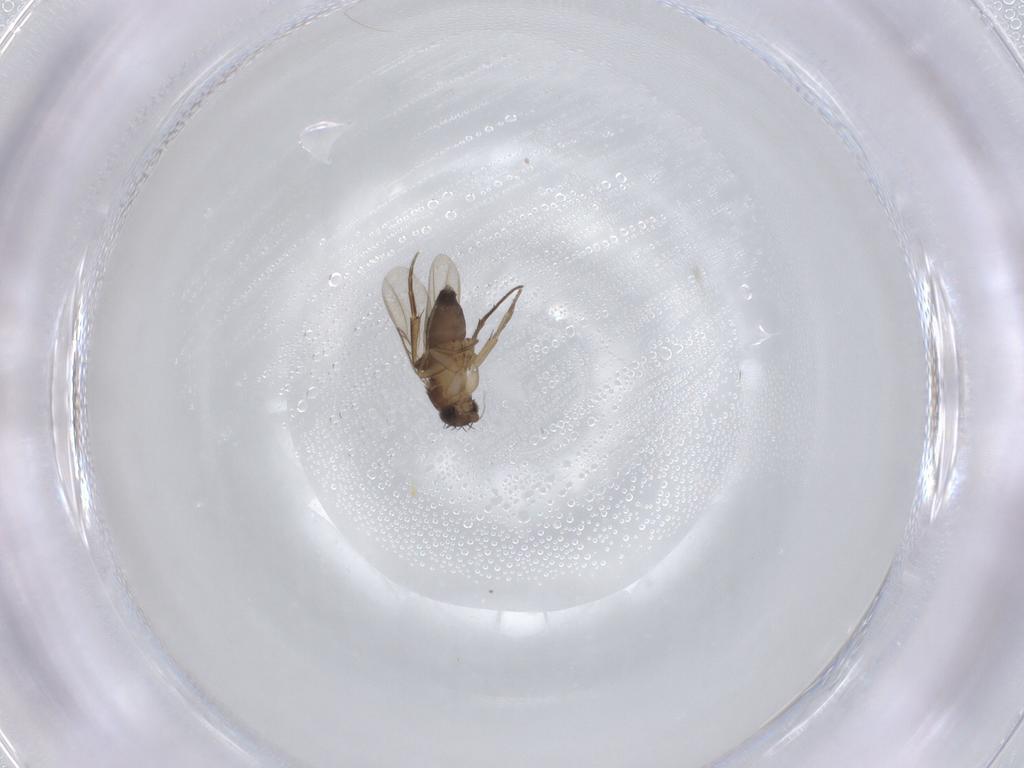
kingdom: Animalia
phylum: Arthropoda
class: Insecta
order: Diptera
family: Phoridae
